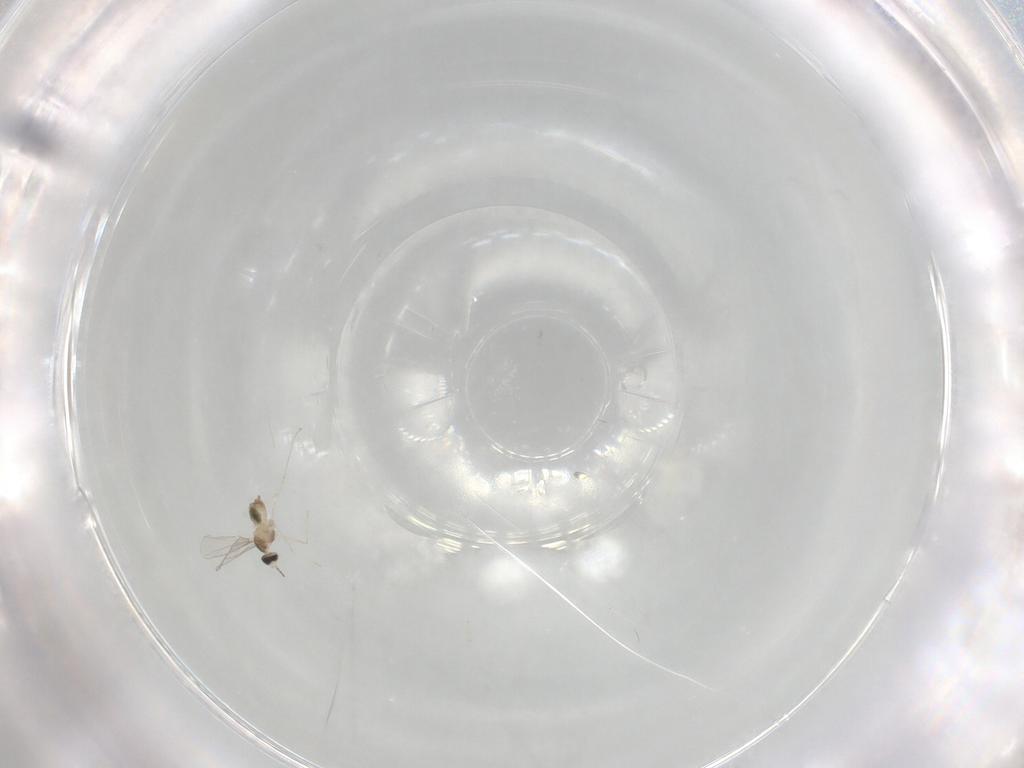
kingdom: Animalia
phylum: Arthropoda
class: Insecta
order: Diptera
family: Cecidomyiidae
